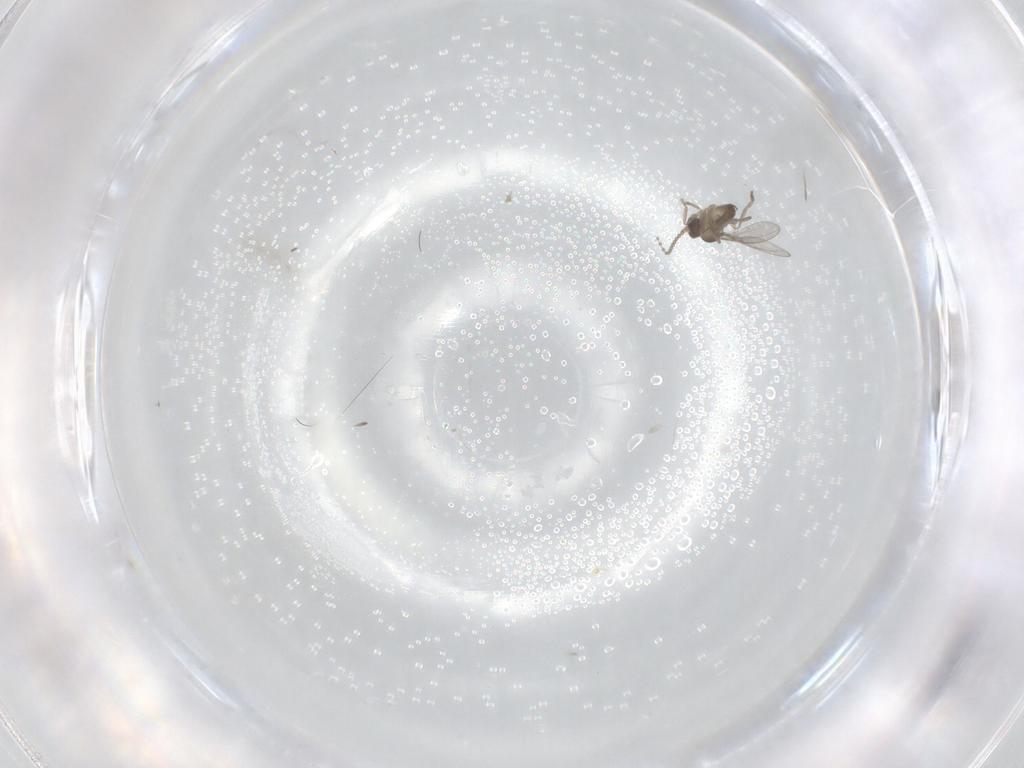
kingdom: Animalia
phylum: Arthropoda
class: Insecta
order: Diptera
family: Cecidomyiidae
